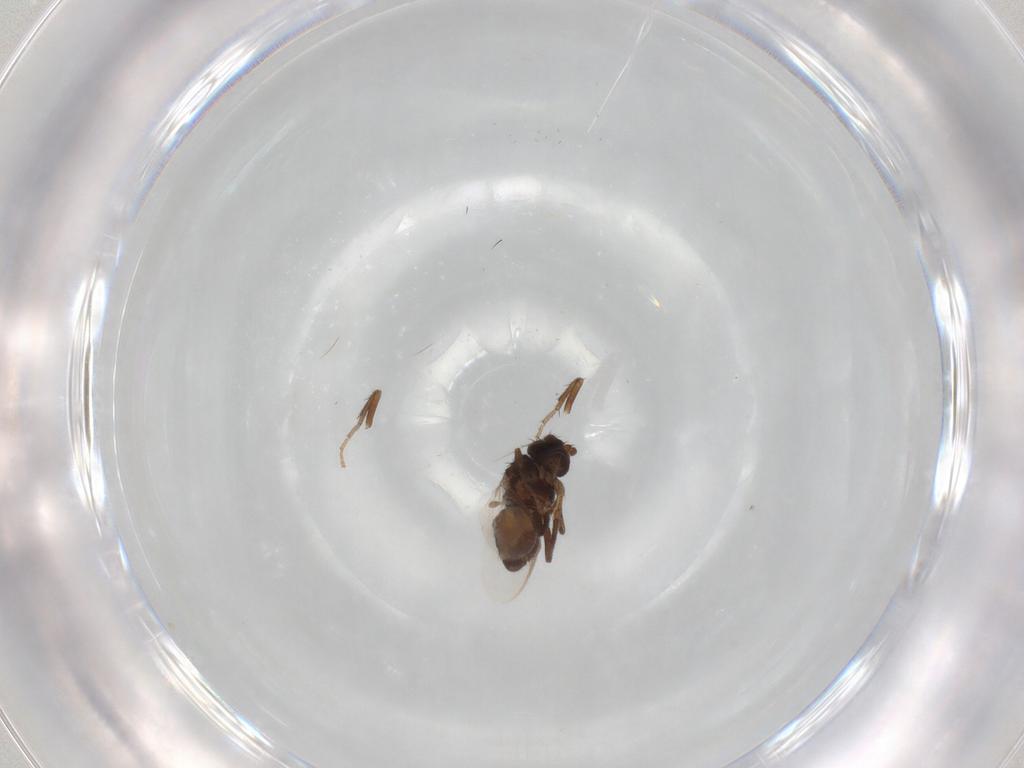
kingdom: Animalia
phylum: Arthropoda
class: Insecta
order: Diptera
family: Sphaeroceridae
